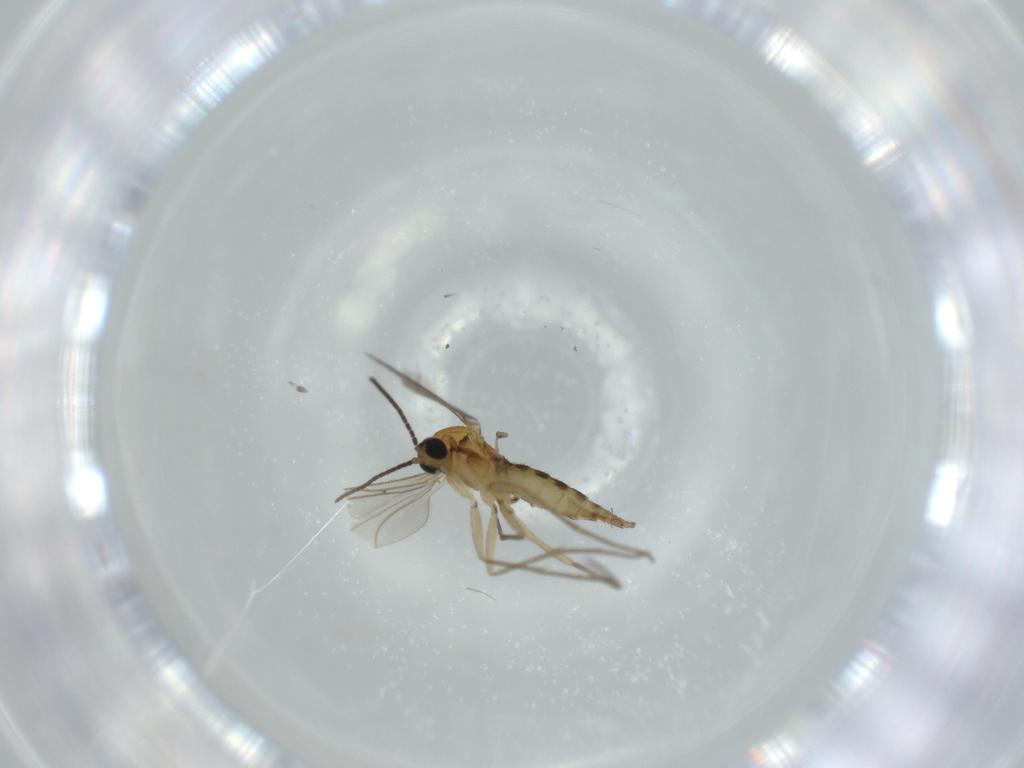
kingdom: Animalia
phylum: Arthropoda
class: Insecta
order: Diptera
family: Sciaridae
